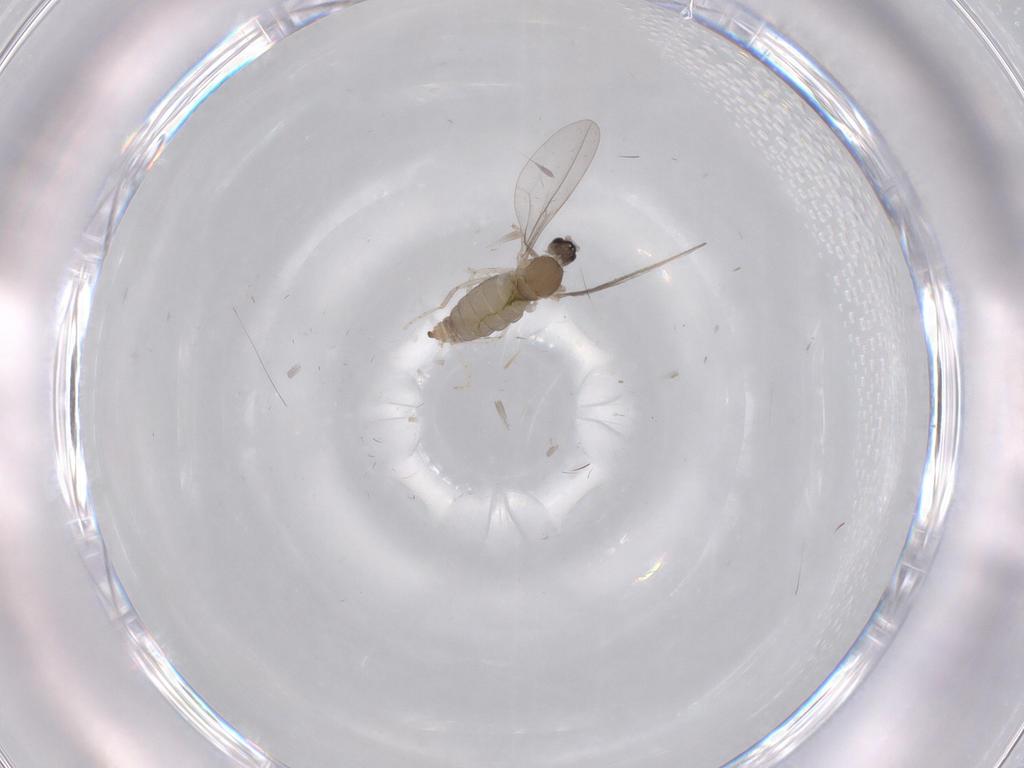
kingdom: Animalia
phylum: Arthropoda
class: Insecta
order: Diptera
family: Cecidomyiidae
